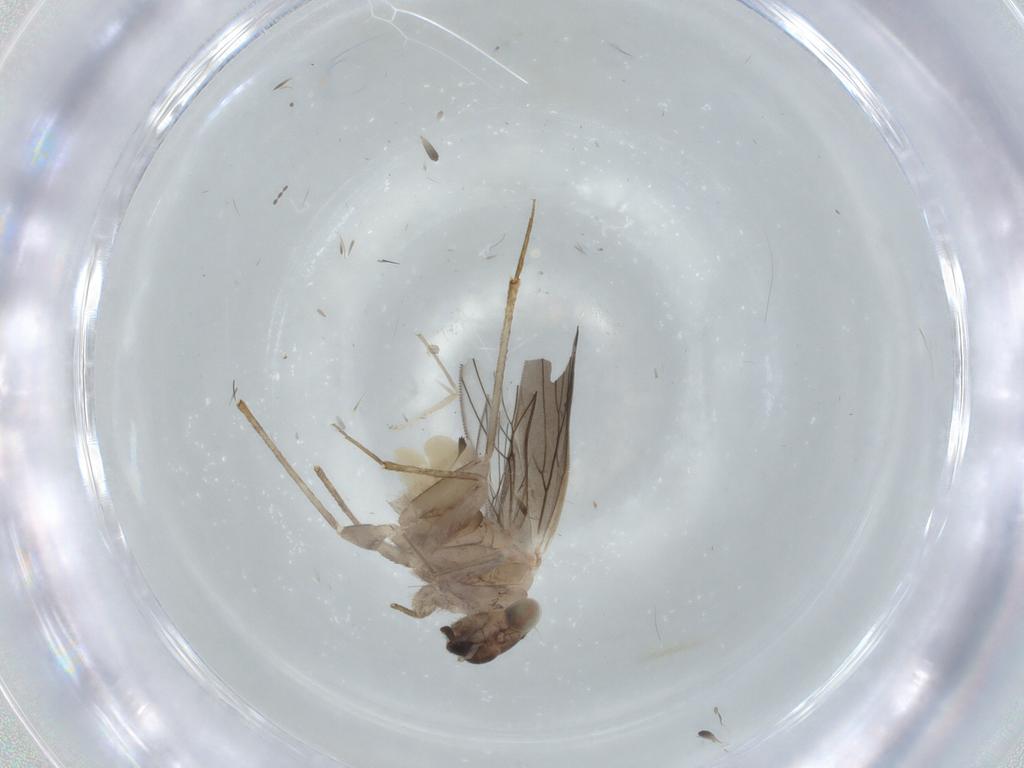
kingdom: Animalia
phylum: Arthropoda
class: Insecta
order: Psocodea
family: Lepidopsocidae
